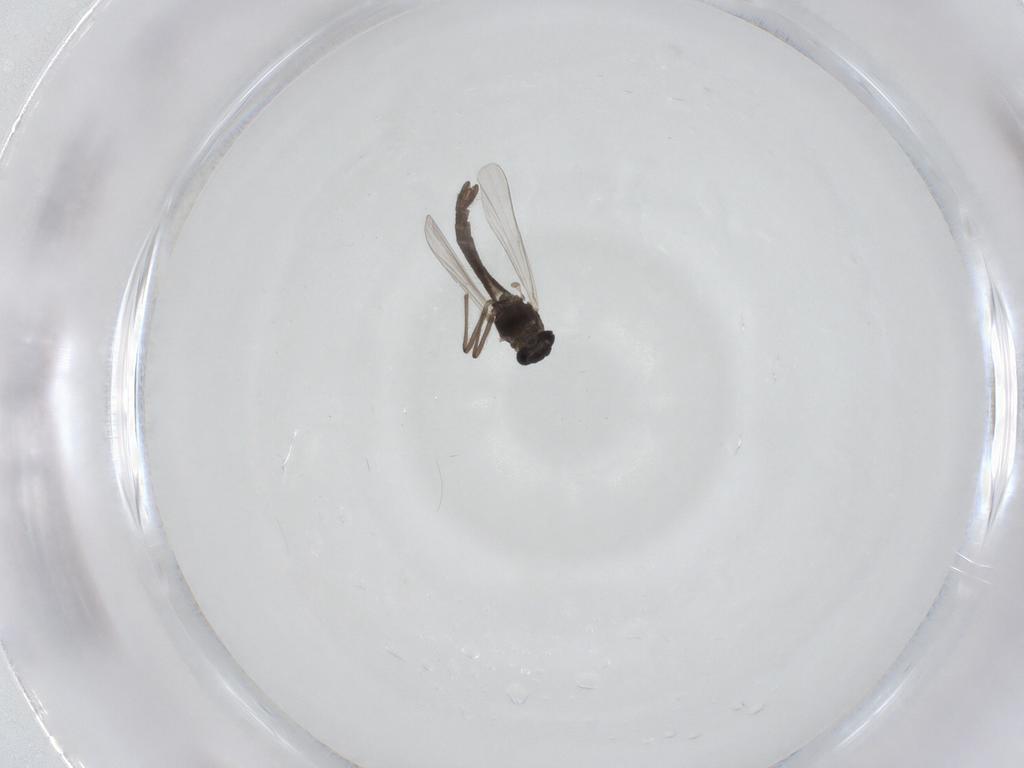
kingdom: Animalia
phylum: Arthropoda
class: Insecta
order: Diptera
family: Chironomidae
